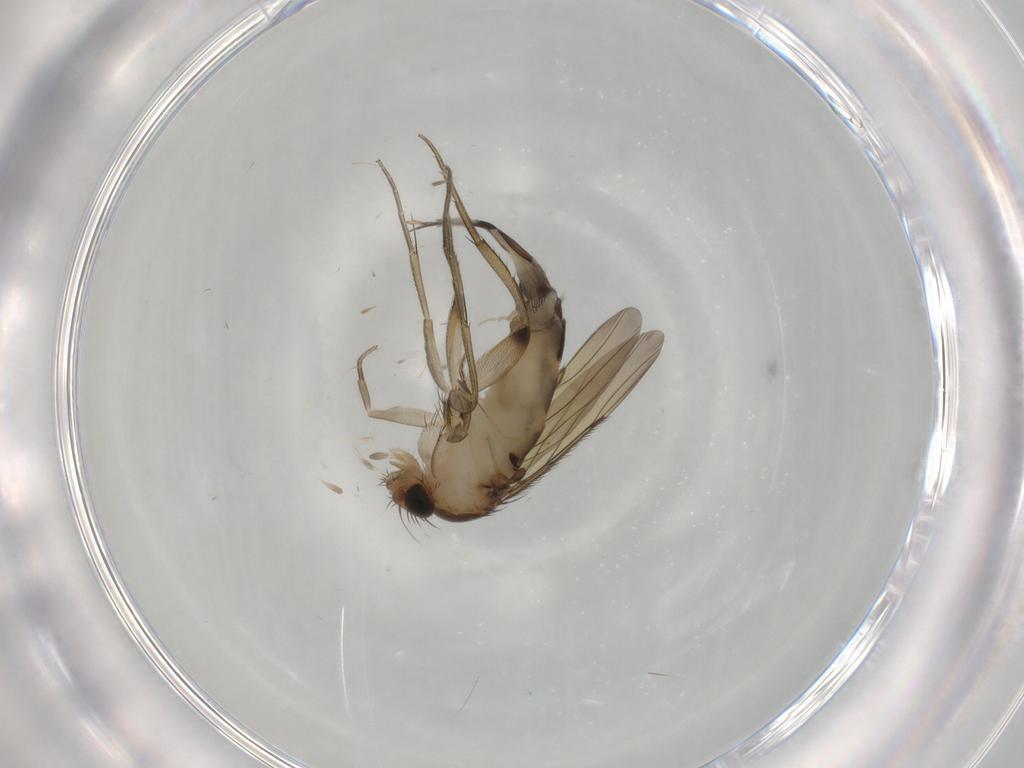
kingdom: Animalia
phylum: Arthropoda
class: Insecta
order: Diptera
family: Phoridae
